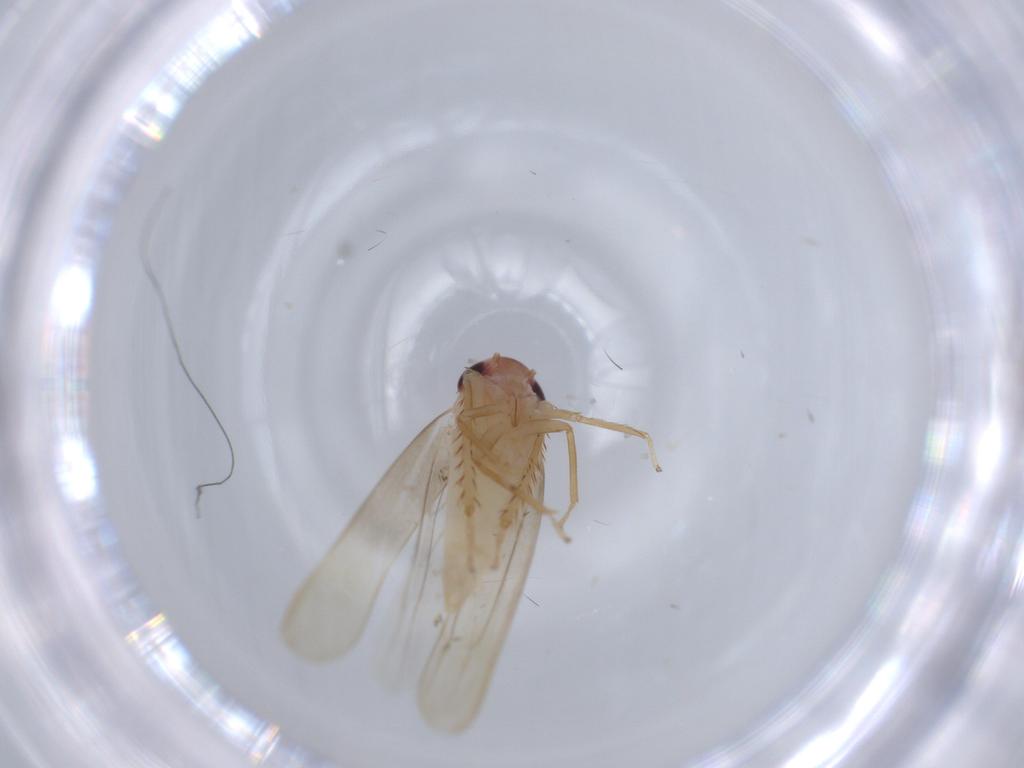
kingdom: Animalia
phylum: Arthropoda
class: Insecta
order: Hemiptera
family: Cicadellidae
